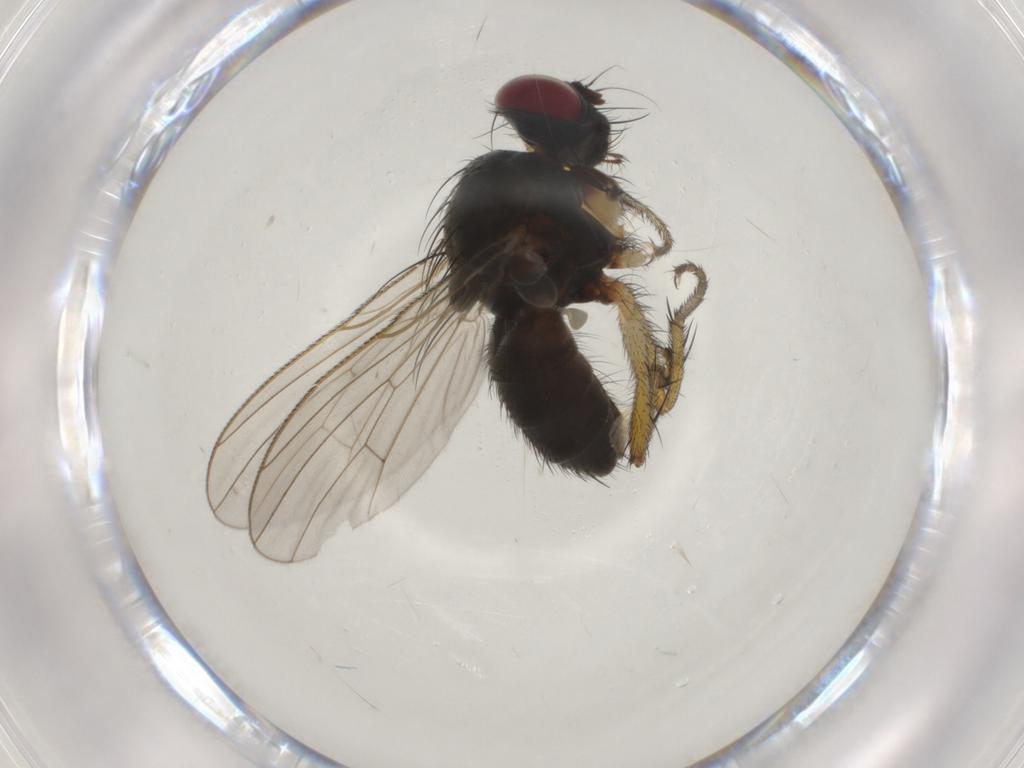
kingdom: Animalia
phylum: Arthropoda
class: Insecta
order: Diptera
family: Muscidae
